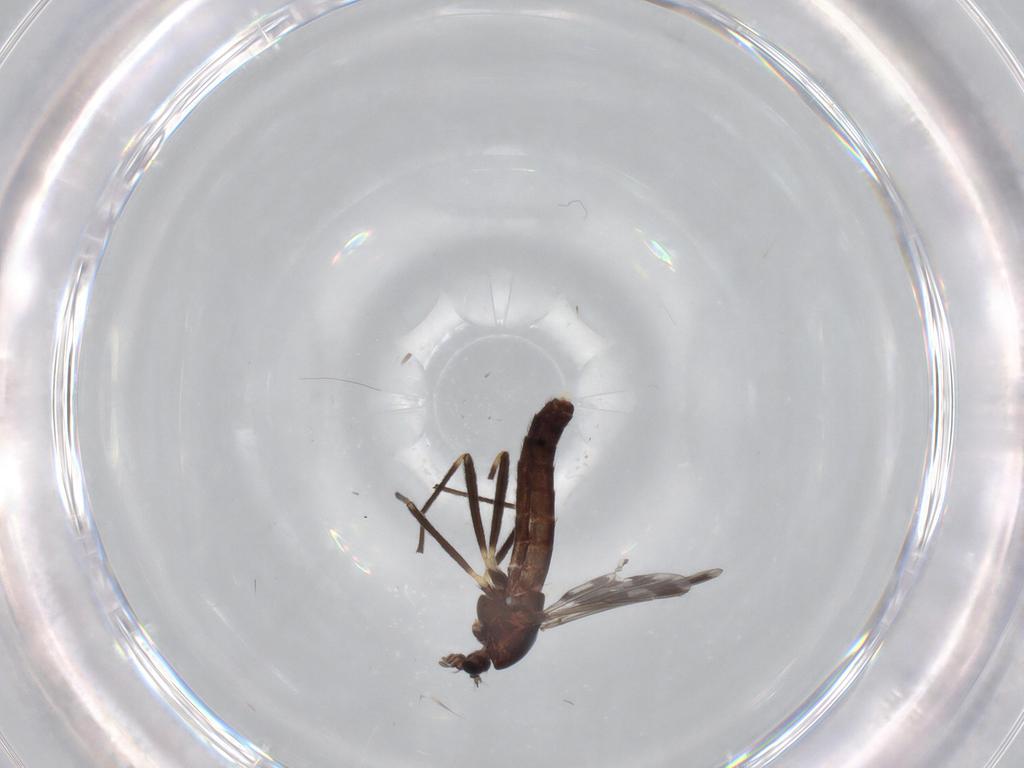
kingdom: Animalia
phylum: Arthropoda
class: Insecta
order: Diptera
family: Chironomidae
